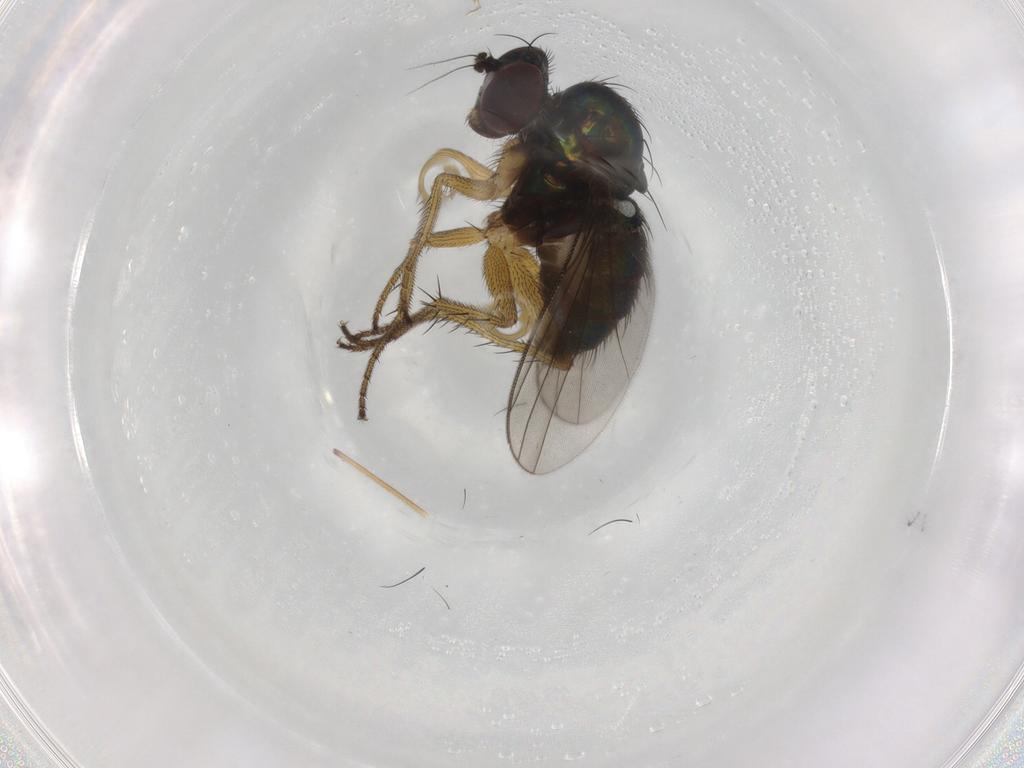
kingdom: Animalia
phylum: Arthropoda
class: Insecta
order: Diptera
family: Dolichopodidae
